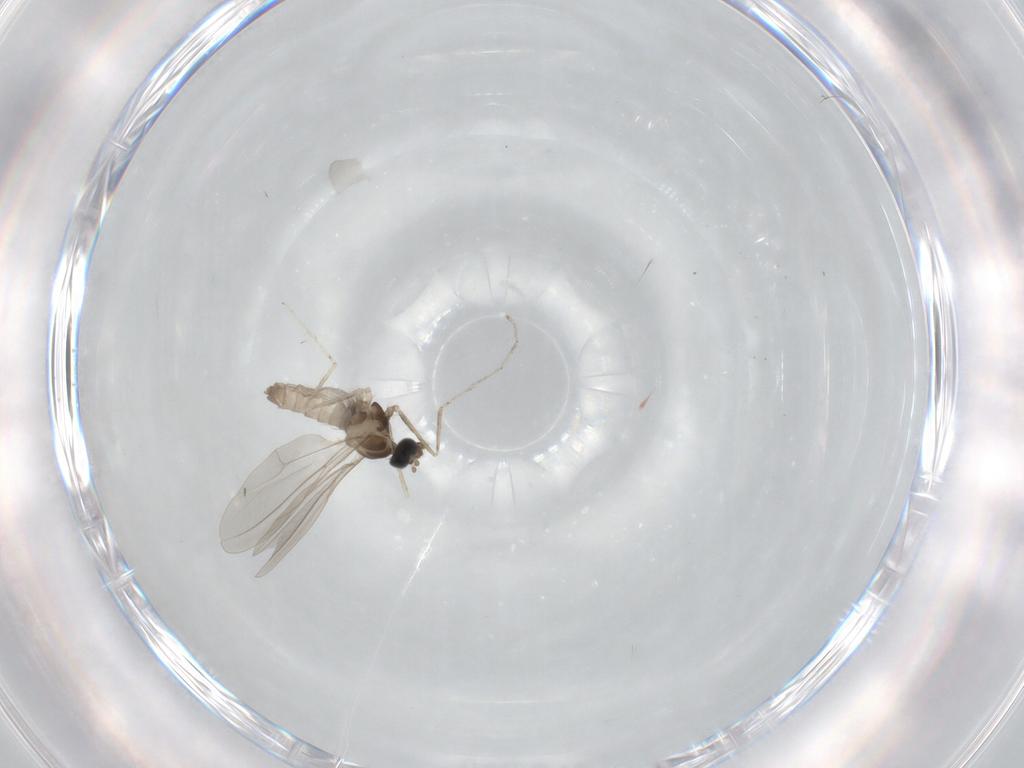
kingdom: Animalia
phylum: Arthropoda
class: Insecta
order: Diptera
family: Cecidomyiidae
